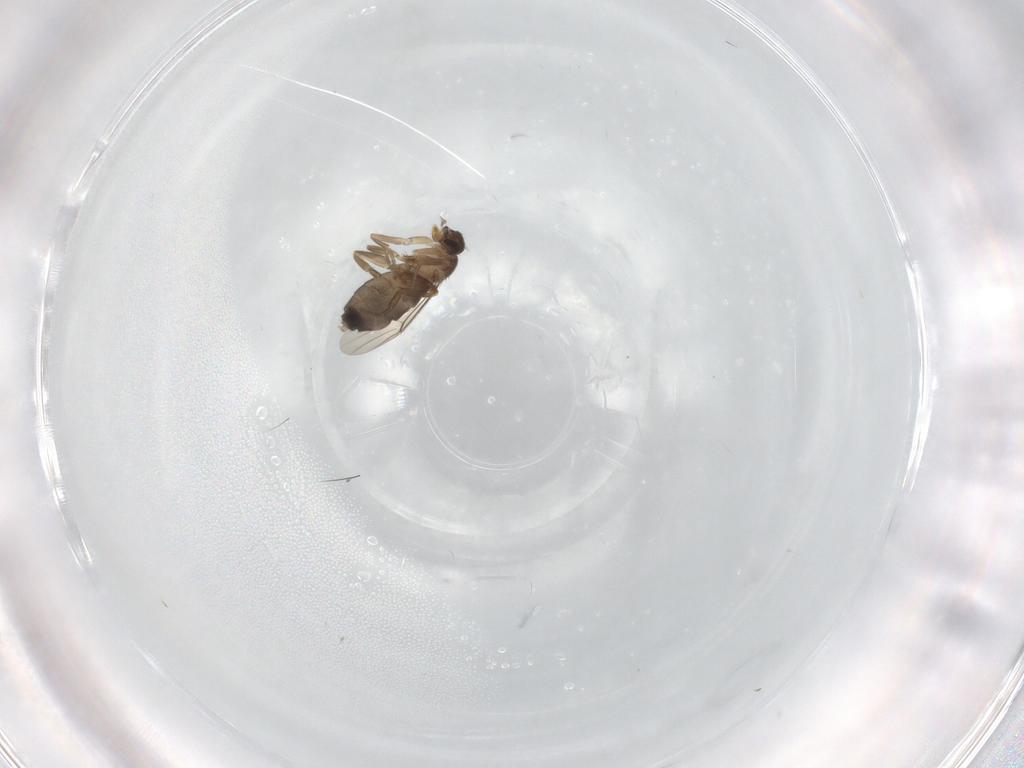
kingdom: Animalia
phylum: Arthropoda
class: Insecta
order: Diptera
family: Phoridae
